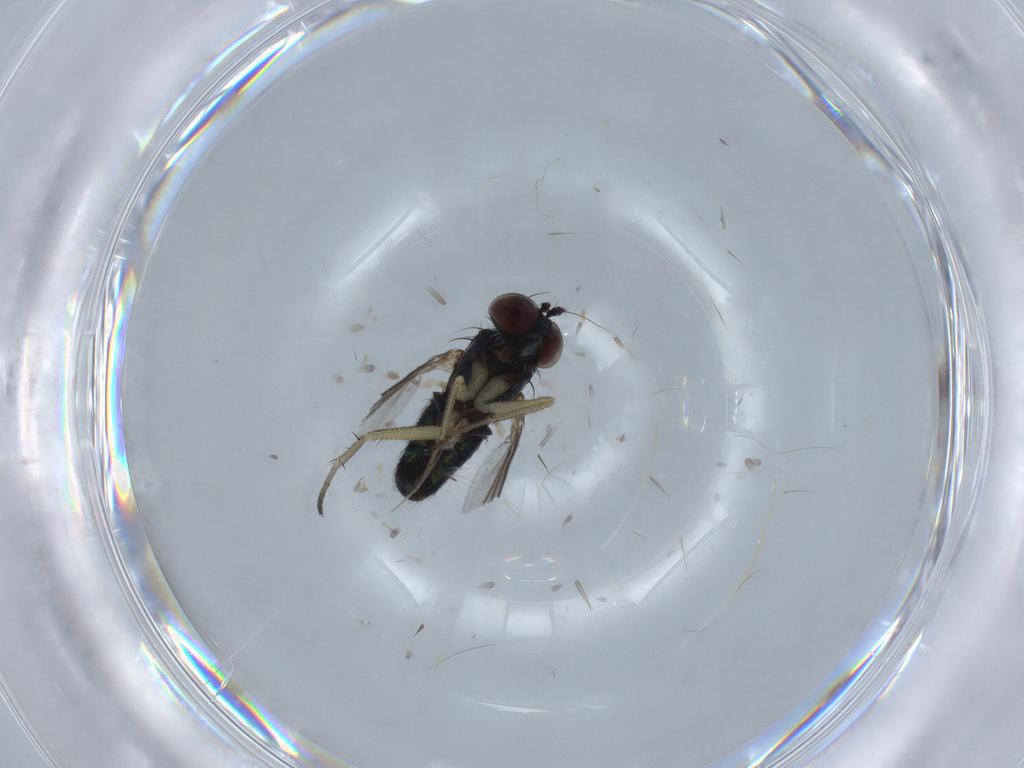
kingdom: Animalia
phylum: Arthropoda
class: Insecta
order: Diptera
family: Dolichopodidae
